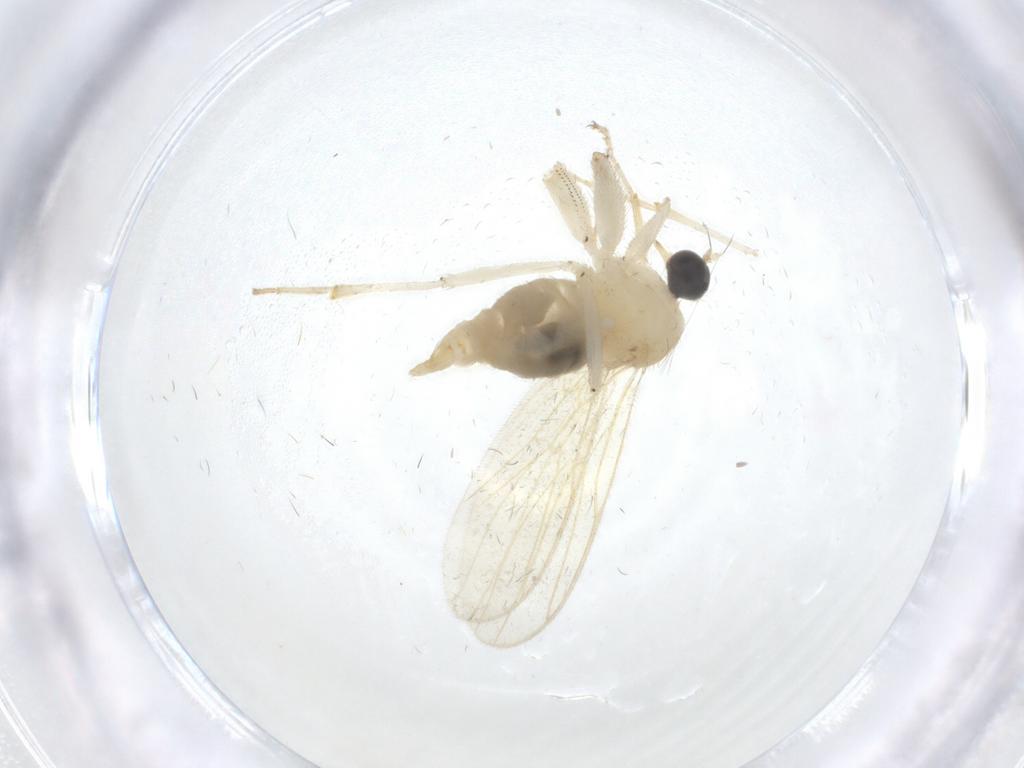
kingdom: Animalia
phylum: Arthropoda
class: Insecta
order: Diptera
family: Hybotidae
